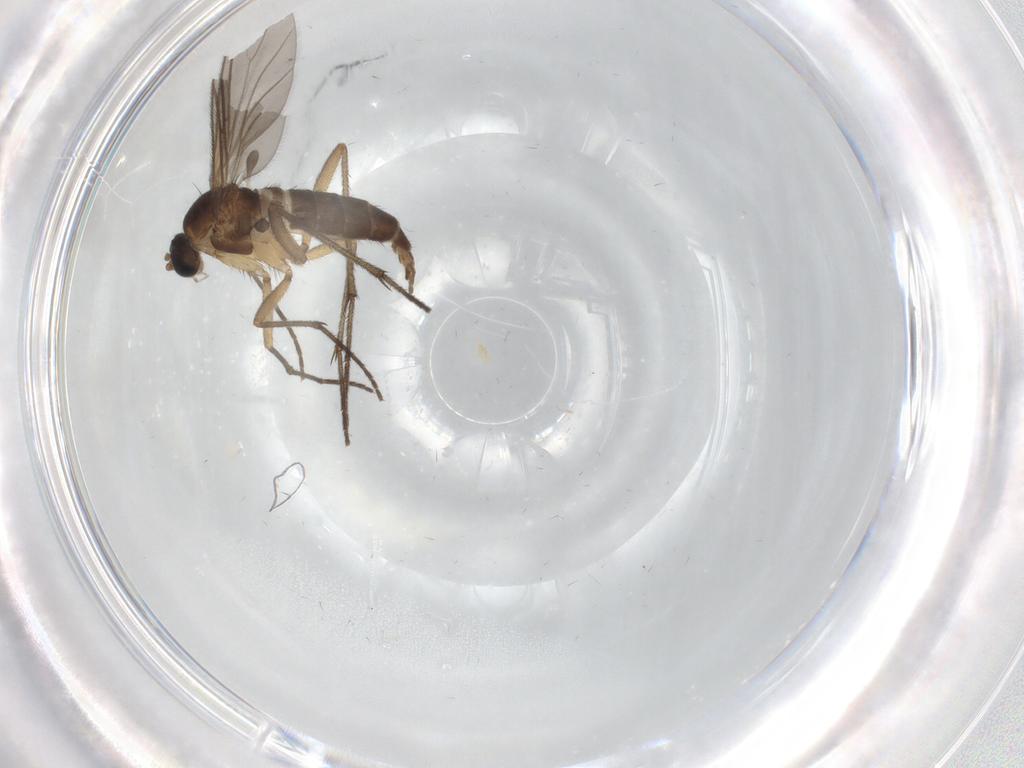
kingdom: Animalia
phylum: Arthropoda
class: Insecta
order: Diptera
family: Sciaridae
